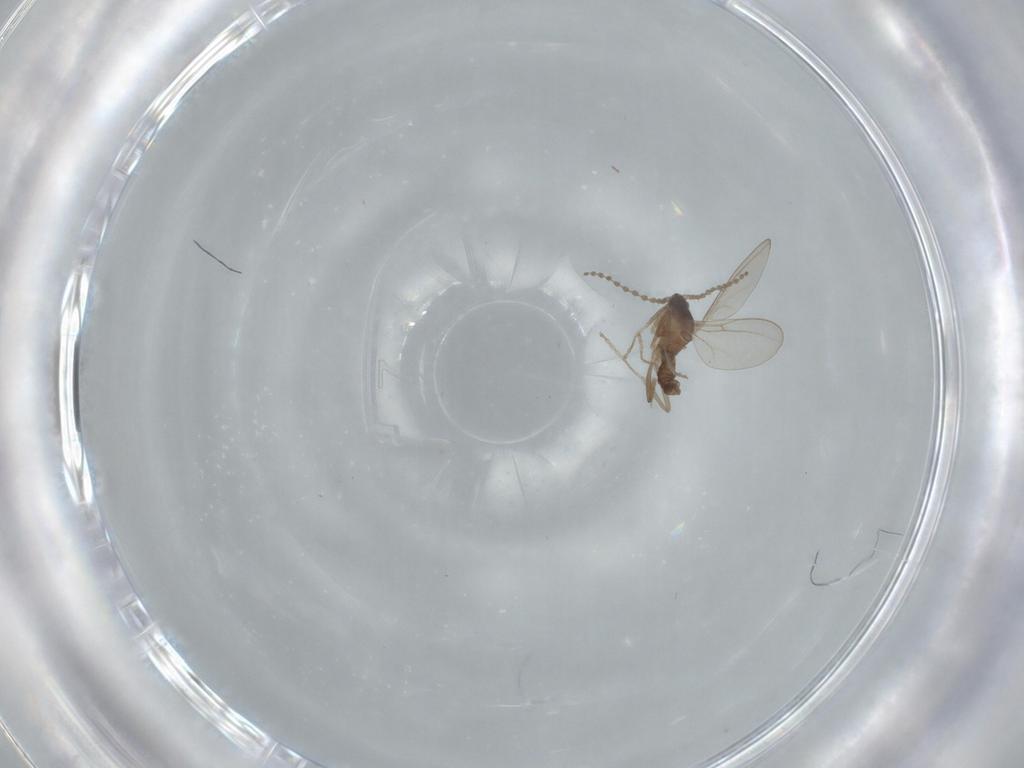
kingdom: Animalia
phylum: Arthropoda
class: Insecta
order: Diptera
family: Cecidomyiidae
